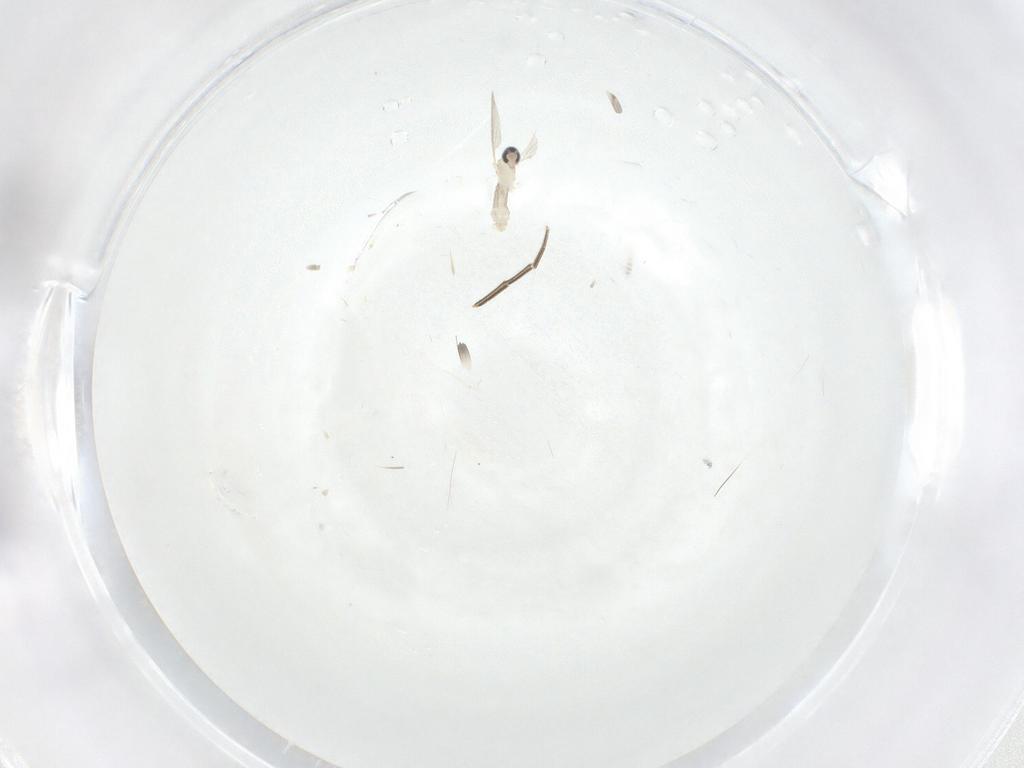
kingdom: Animalia
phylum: Arthropoda
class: Insecta
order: Diptera
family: Cecidomyiidae
